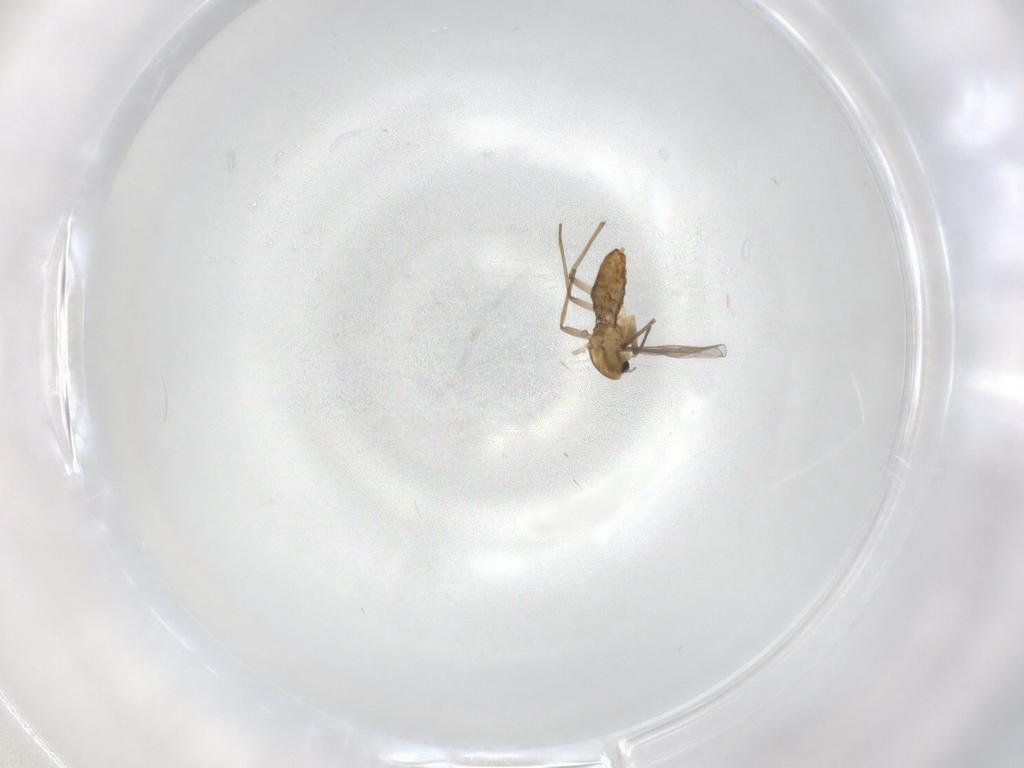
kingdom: Animalia
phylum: Arthropoda
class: Insecta
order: Diptera
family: Chironomidae
